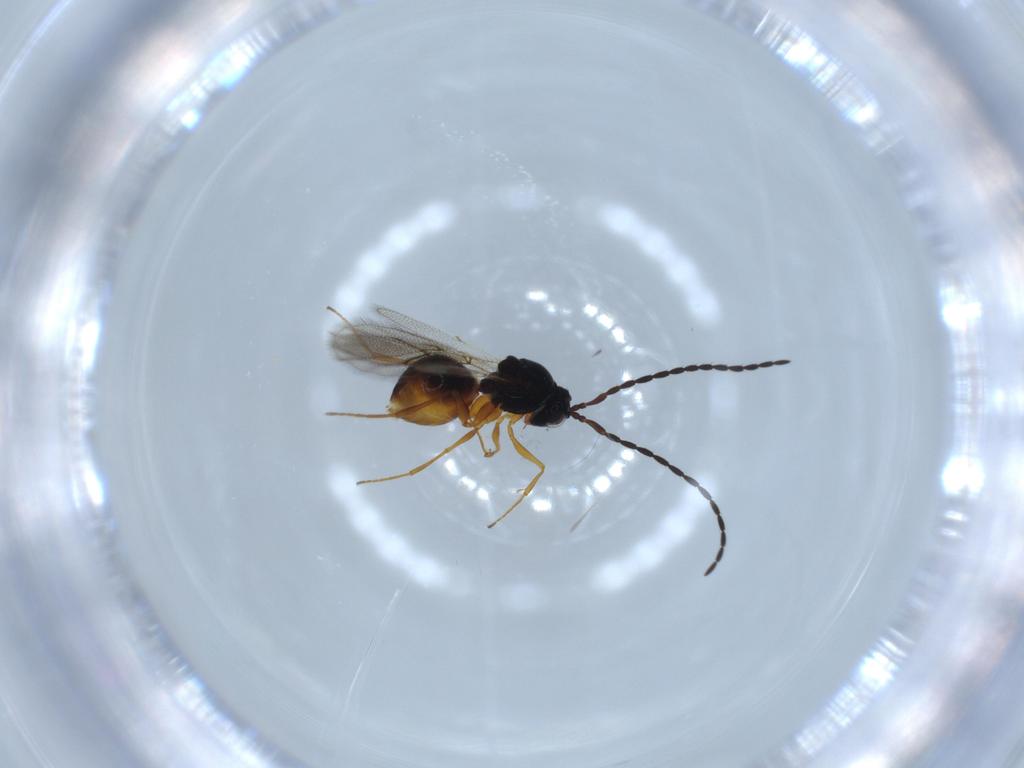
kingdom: Animalia
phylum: Arthropoda
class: Insecta
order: Hymenoptera
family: Figitidae
